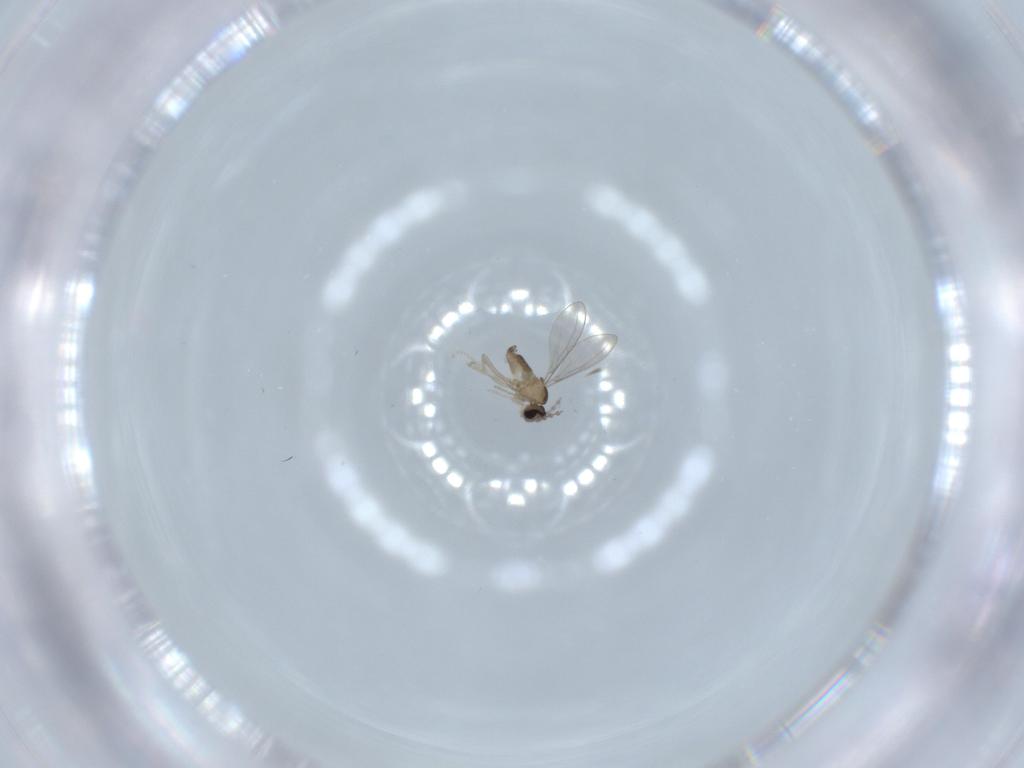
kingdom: Animalia
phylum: Arthropoda
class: Insecta
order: Diptera
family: Cecidomyiidae
